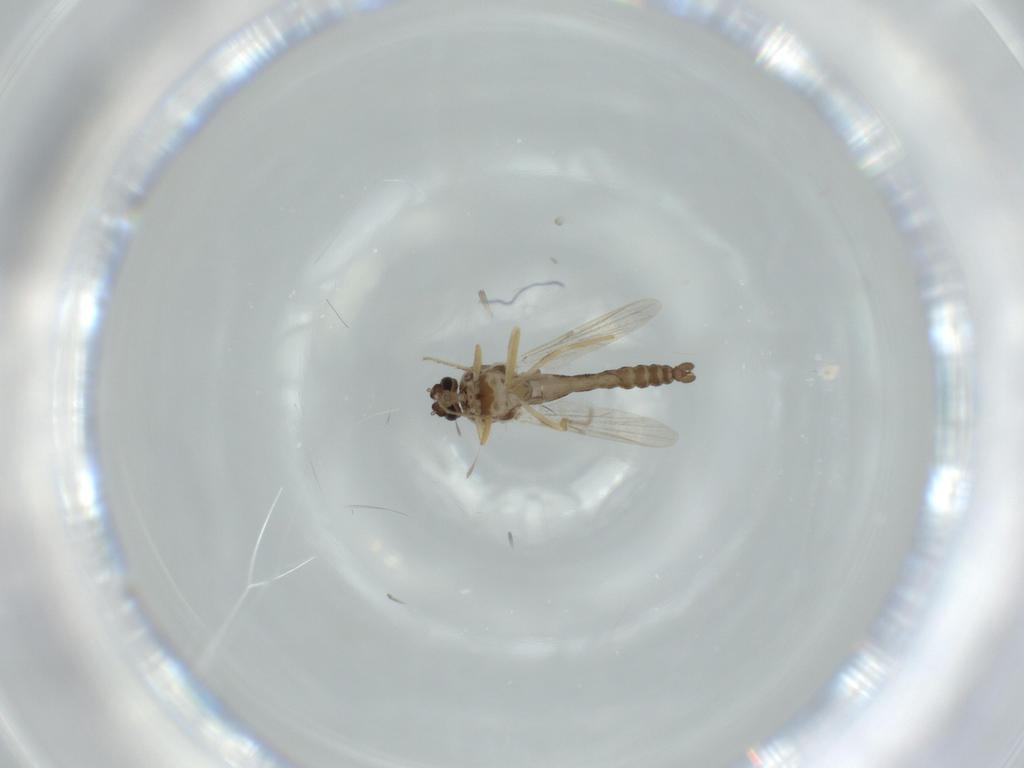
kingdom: Animalia
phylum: Arthropoda
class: Insecta
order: Diptera
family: Ceratopogonidae
